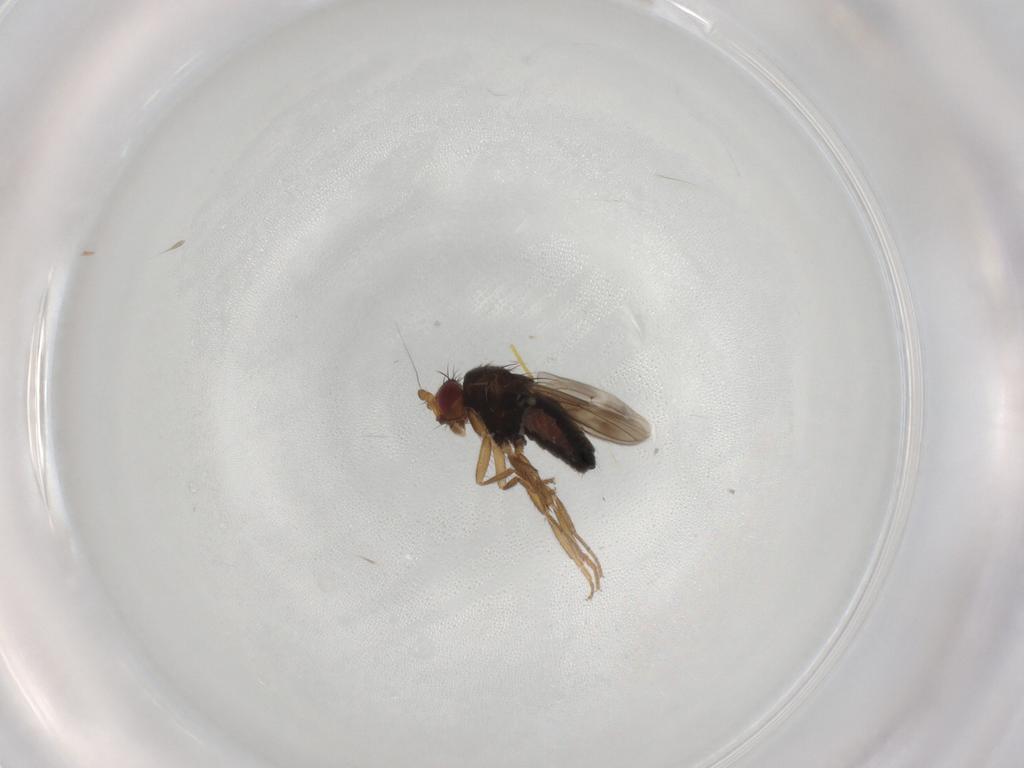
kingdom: Animalia
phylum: Arthropoda
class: Insecta
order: Diptera
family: Sphaeroceridae
